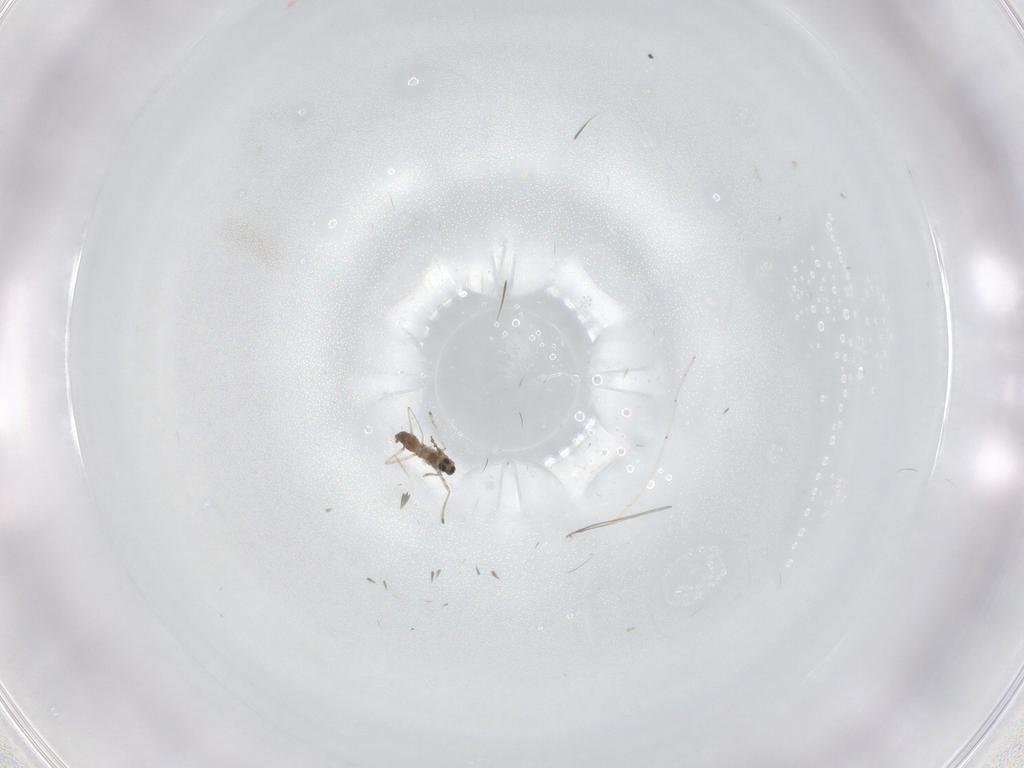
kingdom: Animalia
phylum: Arthropoda
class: Insecta
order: Diptera
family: Cecidomyiidae
